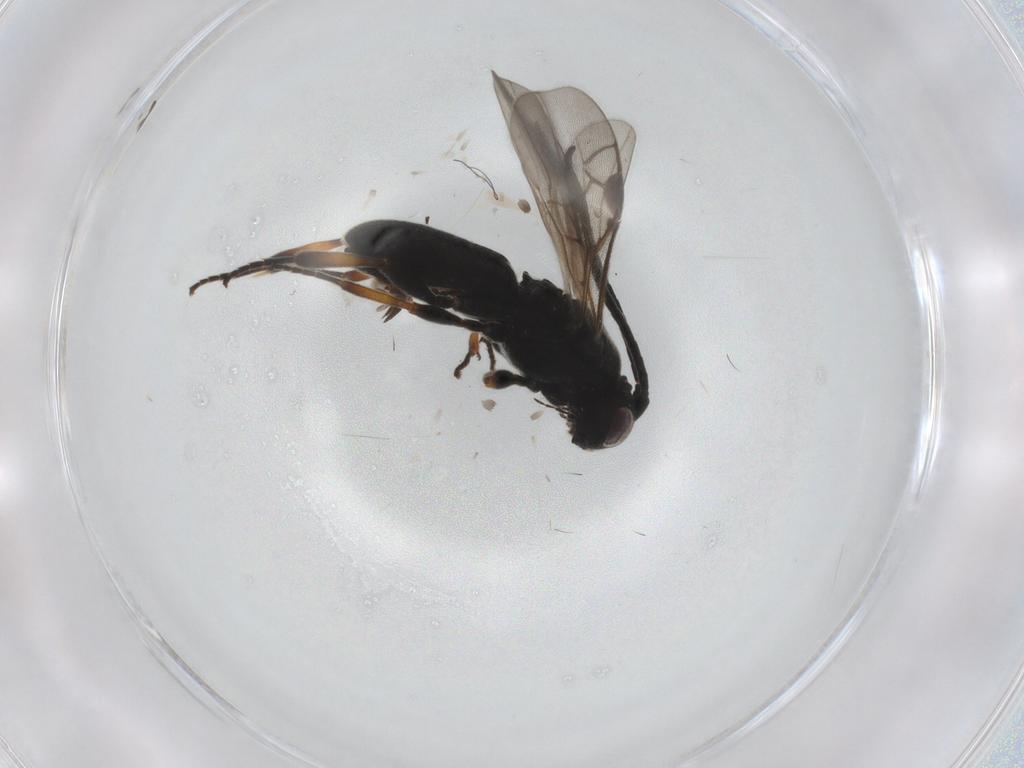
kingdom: Animalia
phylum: Arthropoda
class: Insecta
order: Hymenoptera
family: Braconidae
